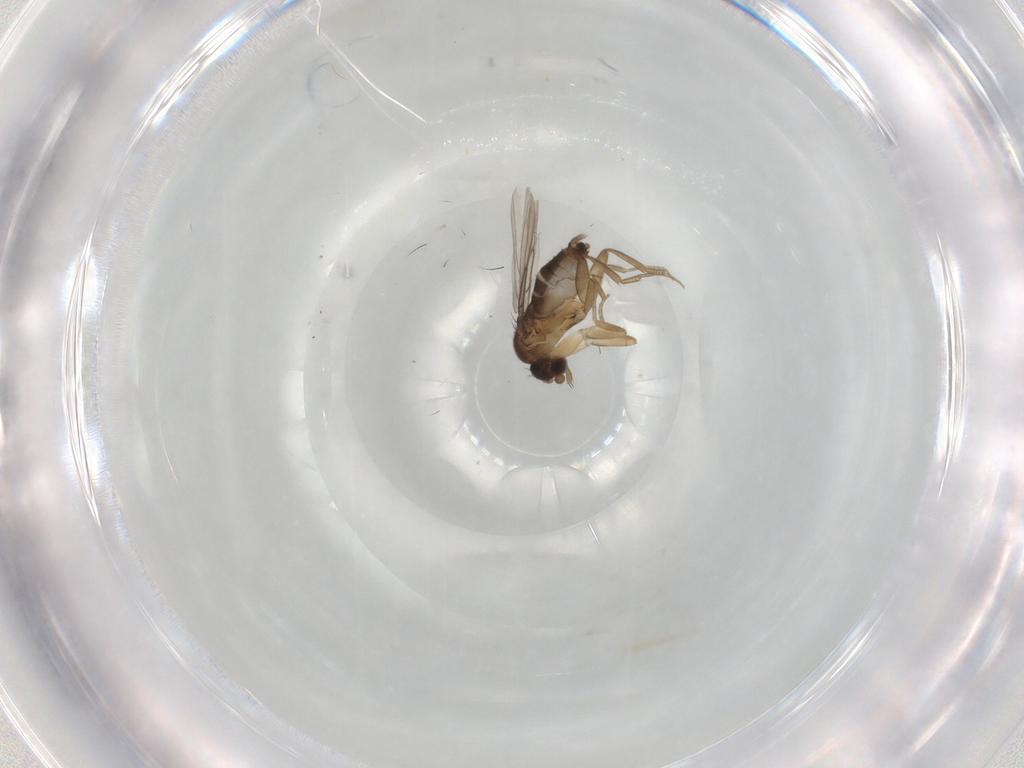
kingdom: Animalia
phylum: Arthropoda
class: Insecta
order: Diptera
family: Phoridae
